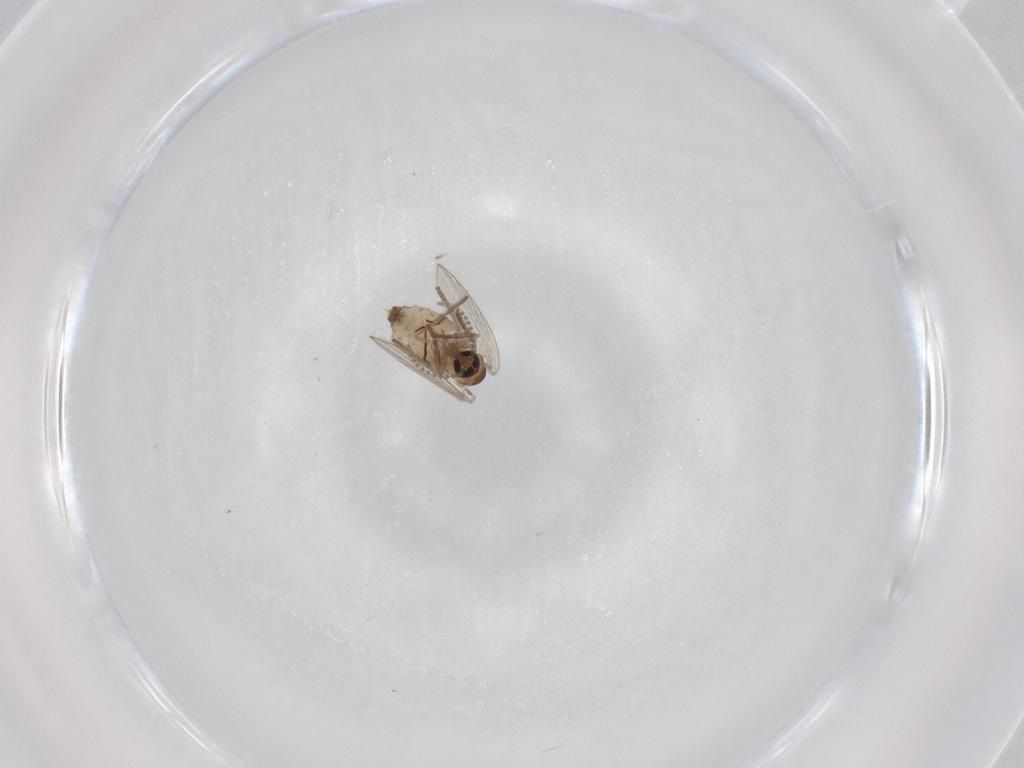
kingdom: Animalia
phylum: Arthropoda
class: Insecta
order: Diptera
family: Psychodidae
